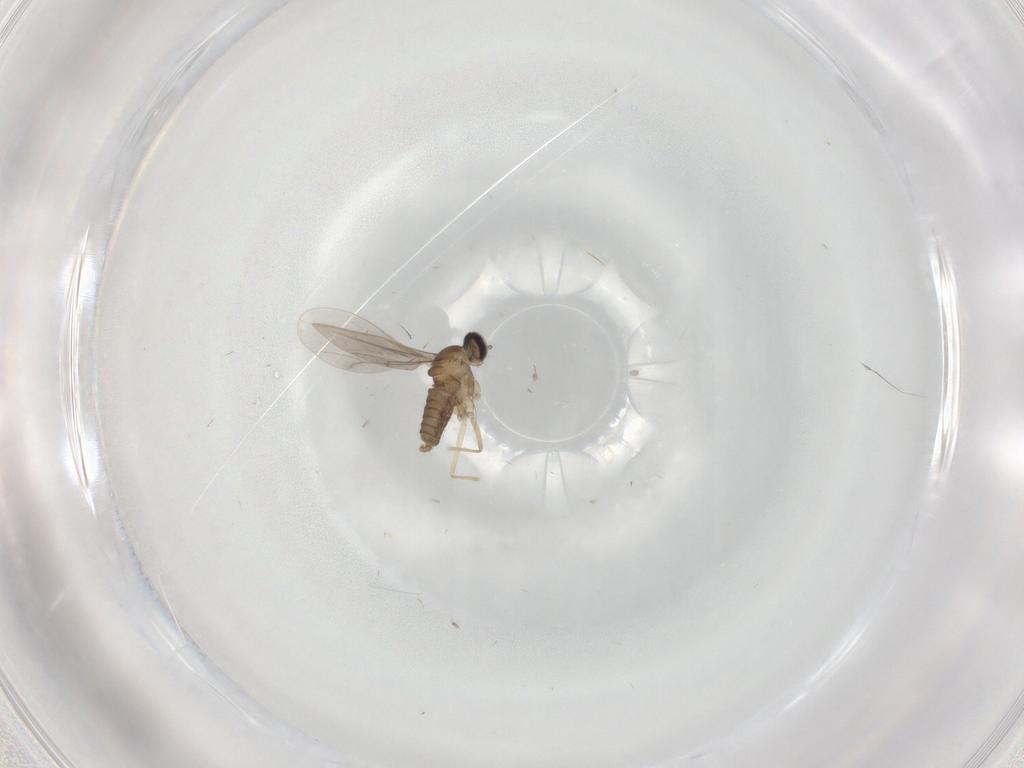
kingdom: Animalia
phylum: Arthropoda
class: Insecta
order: Diptera
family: Cecidomyiidae
